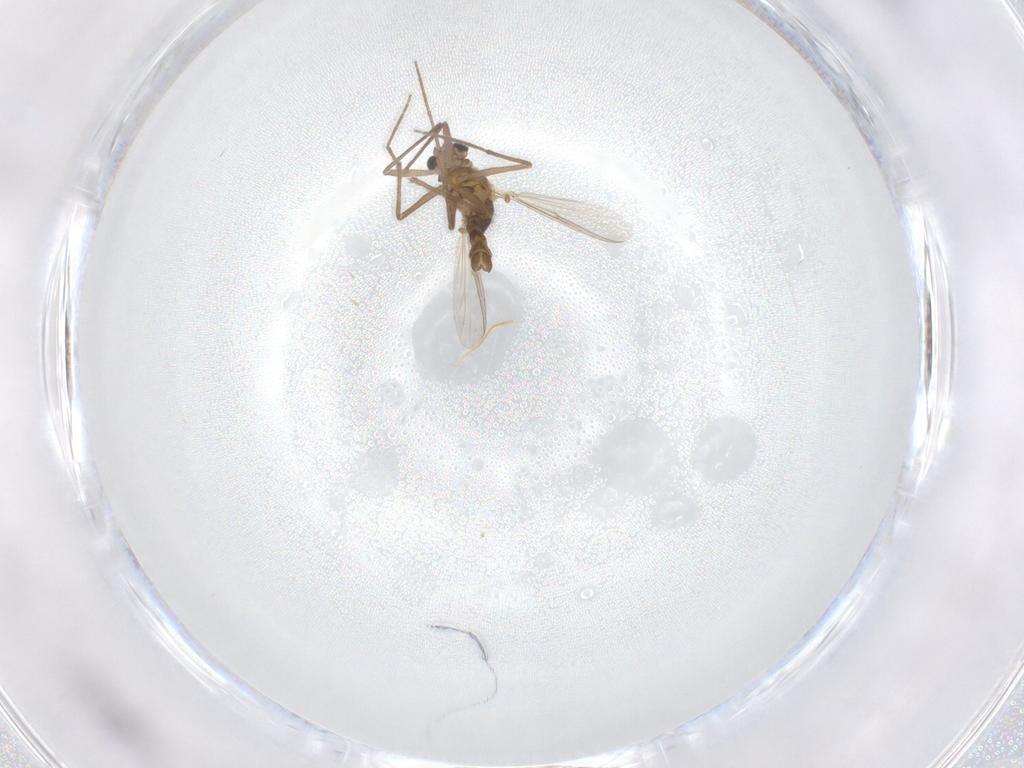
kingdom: Animalia
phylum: Arthropoda
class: Insecta
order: Diptera
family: Chironomidae
